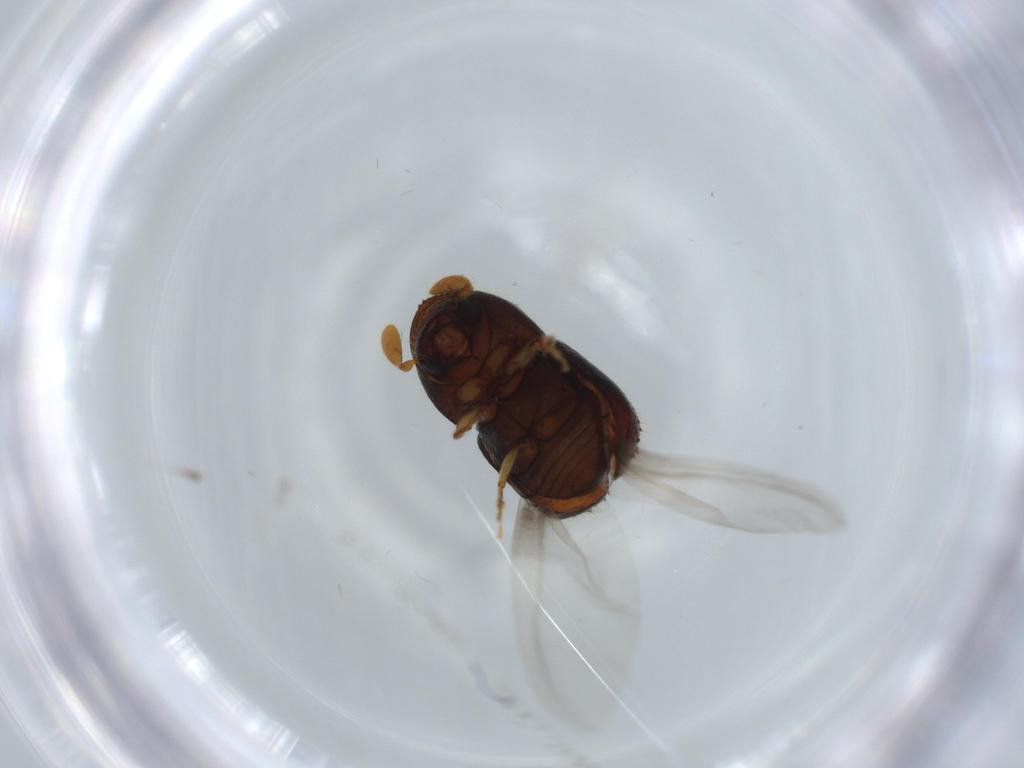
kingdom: Animalia
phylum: Arthropoda
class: Insecta
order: Coleoptera
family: Curculionidae
